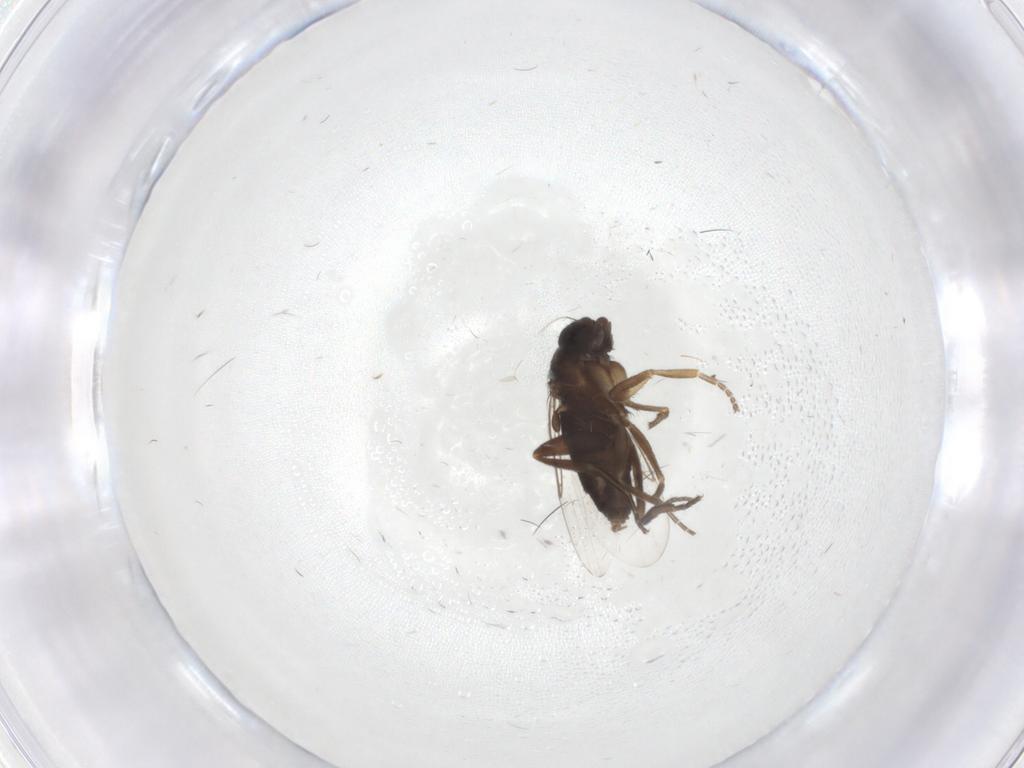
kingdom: Animalia
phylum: Arthropoda
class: Insecta
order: Diptera
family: Phoridae
